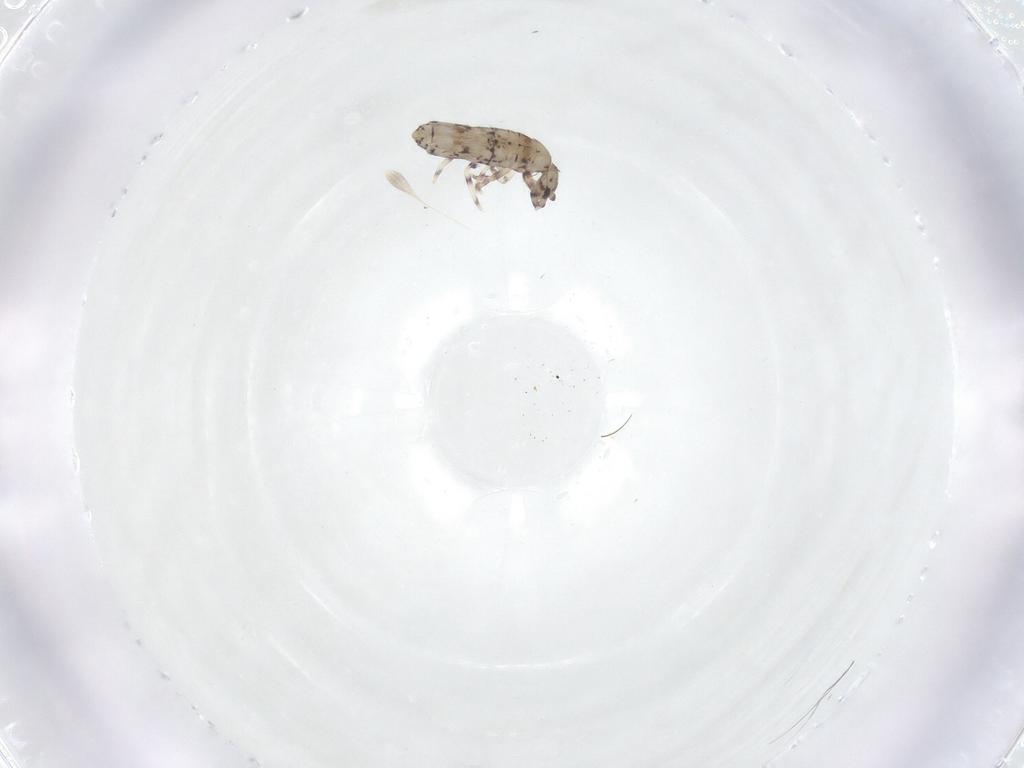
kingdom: Animalia
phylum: Arthropoda
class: Collembola
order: Entomobryomorpha
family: Entomobryidae
